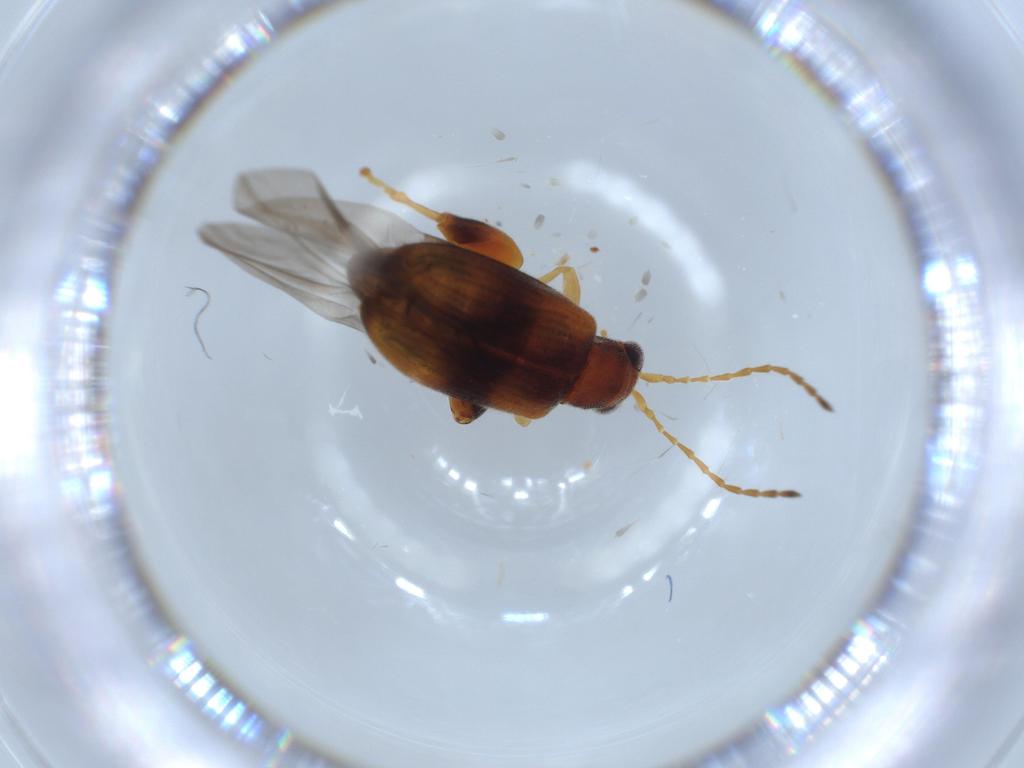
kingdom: Animalia
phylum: Arthropoda
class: Insecta
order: Coleoptera
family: Chrysomelidae
